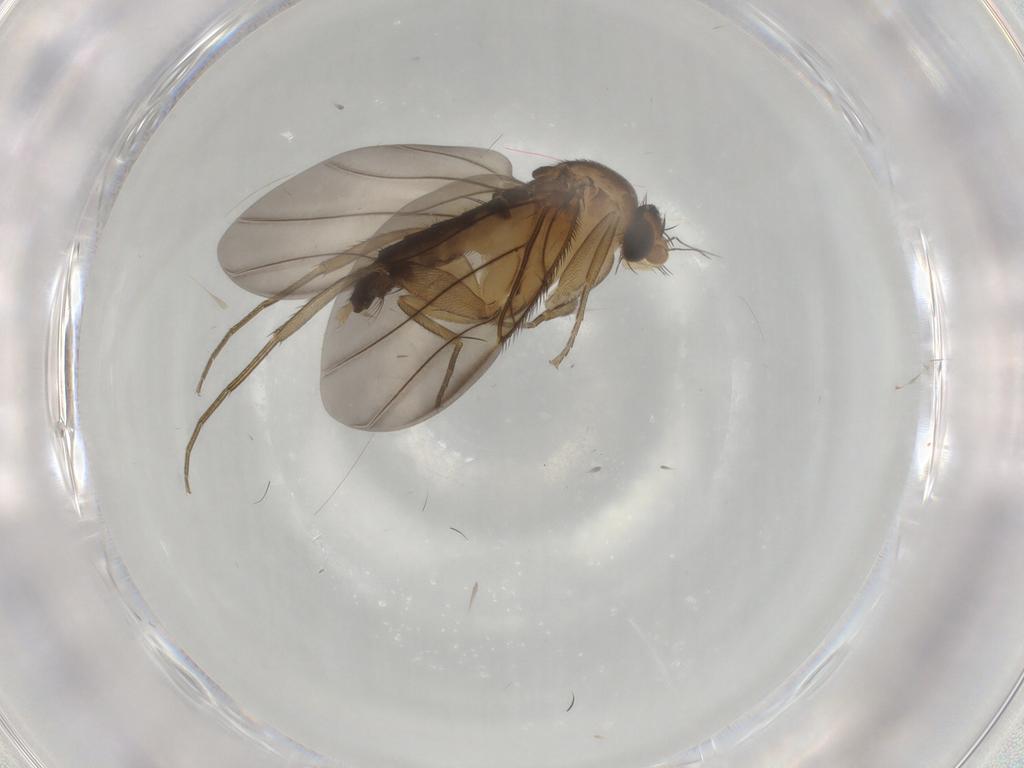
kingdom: Animalia
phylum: Arthropoda
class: Insecta
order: Diptera
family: Phoridae
